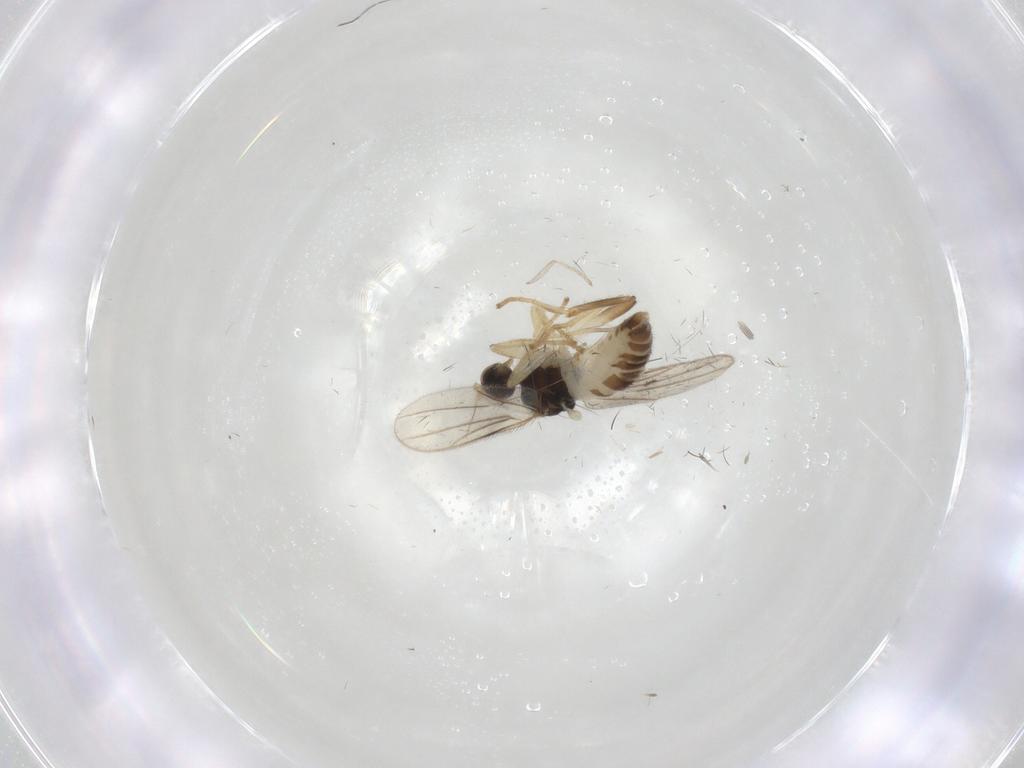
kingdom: Animalia
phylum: Arthropoda
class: Insecta
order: Diptera
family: Hybotidae
